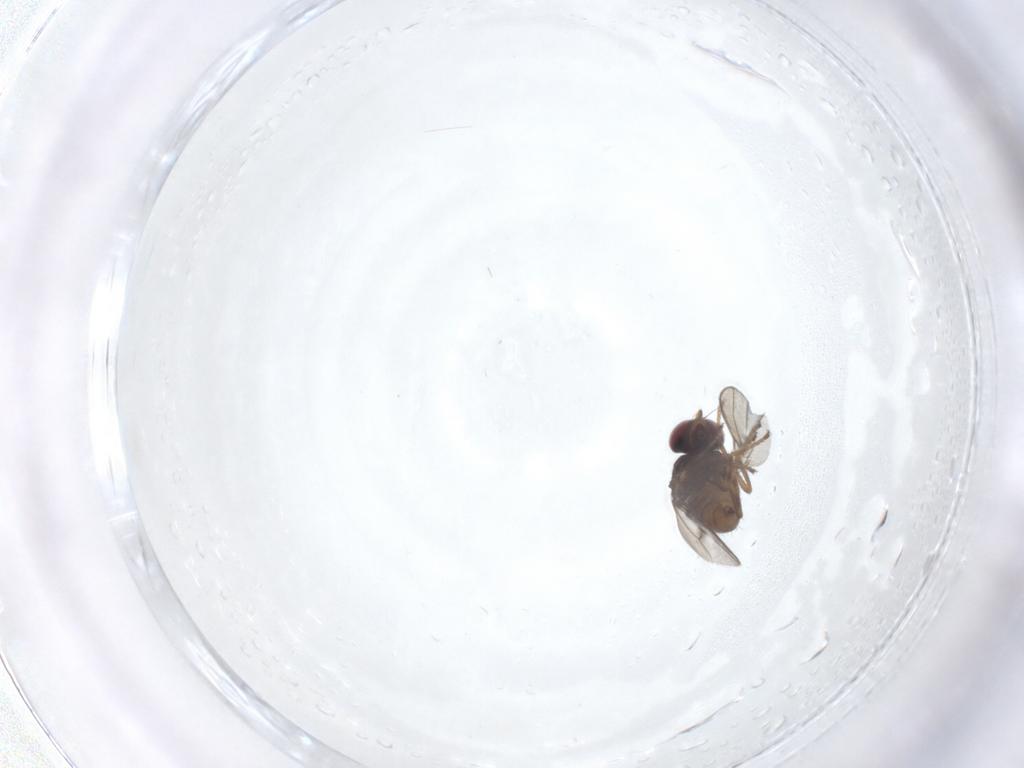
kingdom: Animalia
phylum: Arthropoda
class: Insecta
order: Diptera
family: Ephydridae
